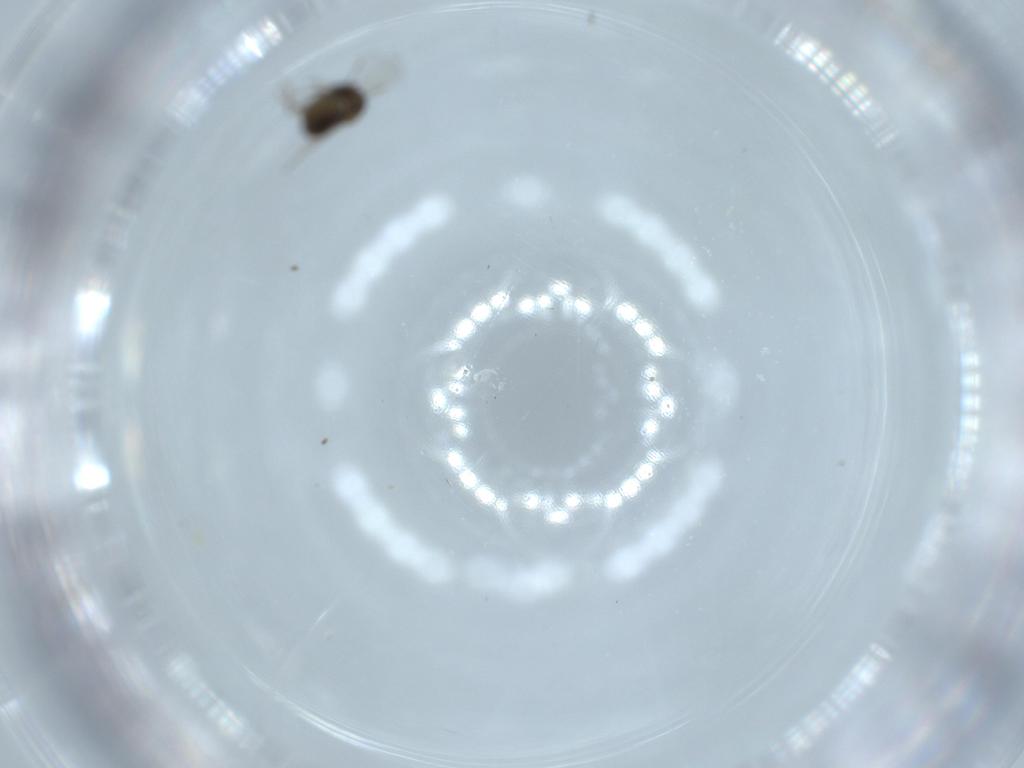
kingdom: Animalia
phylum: Arthropoda
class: Insecta
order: Diptera
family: Ceratopogonidae
